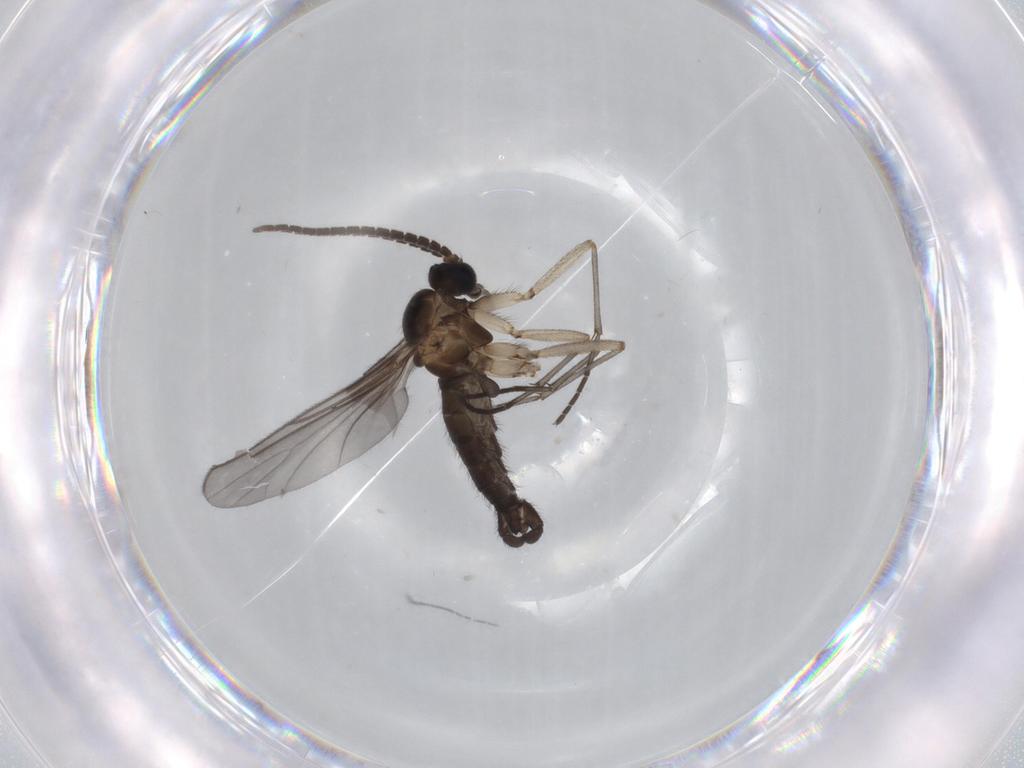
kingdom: Animalia
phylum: Arthropoda
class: Insecta
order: Diptera
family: Sciaridae
